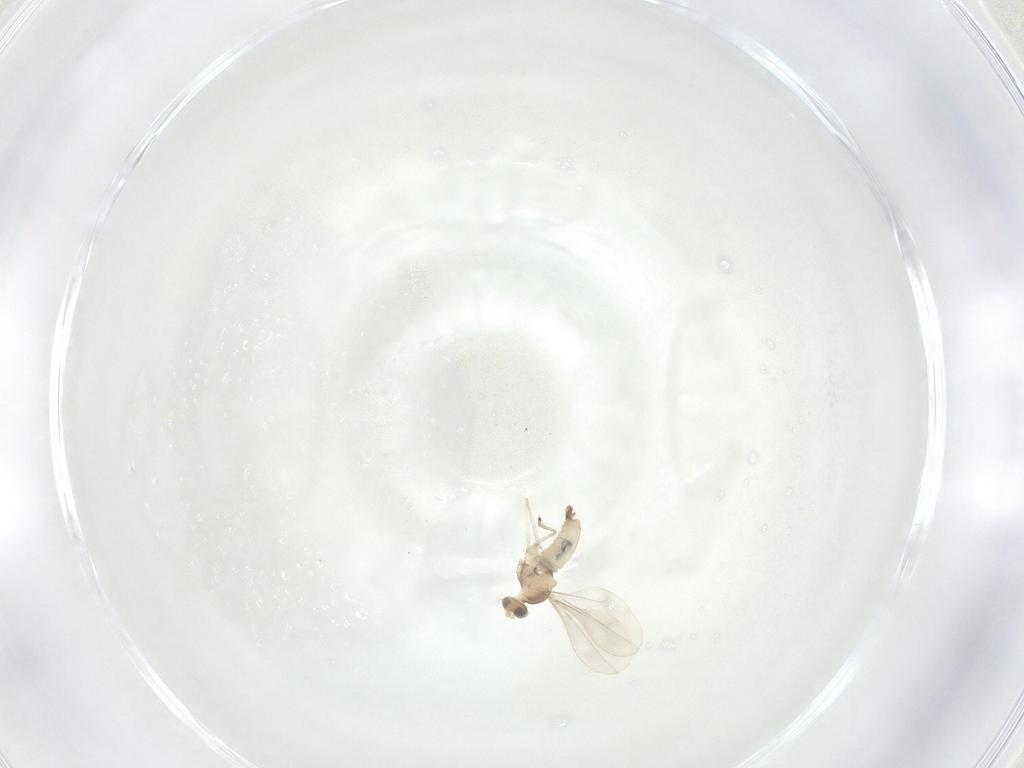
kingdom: Animalia
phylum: Arthropoda
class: Insecta
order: Diptera
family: Cecidomyiidae
